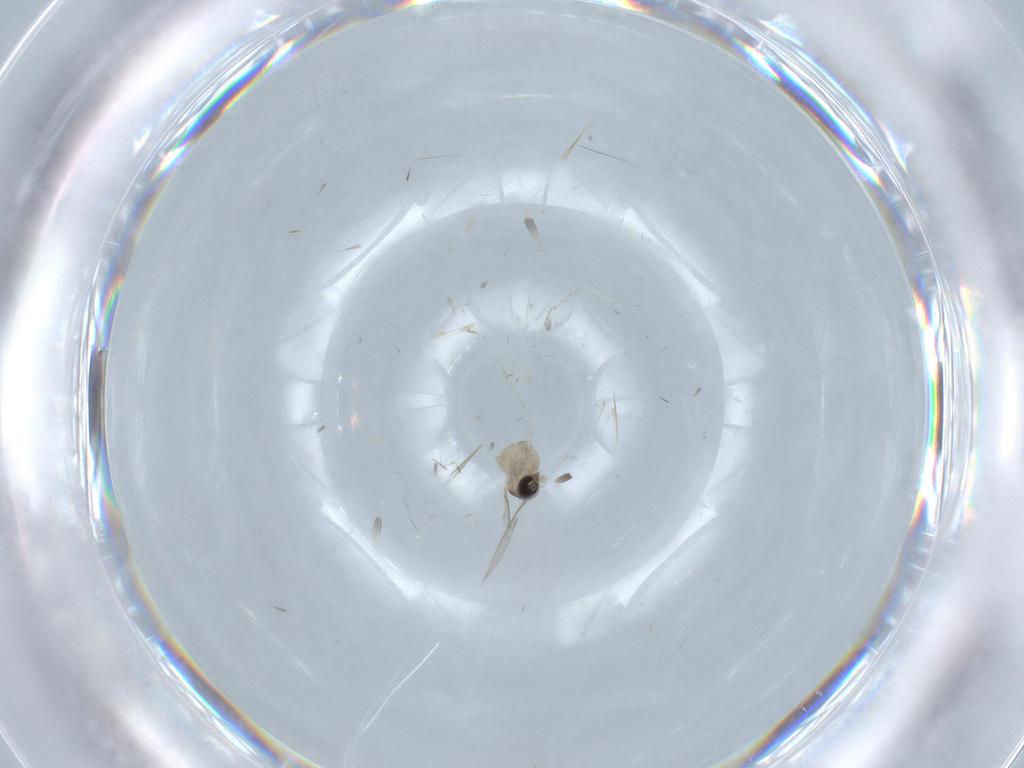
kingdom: Animalia
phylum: Arthropoda
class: Insecta
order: Diptera
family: Cecidomyiidae
